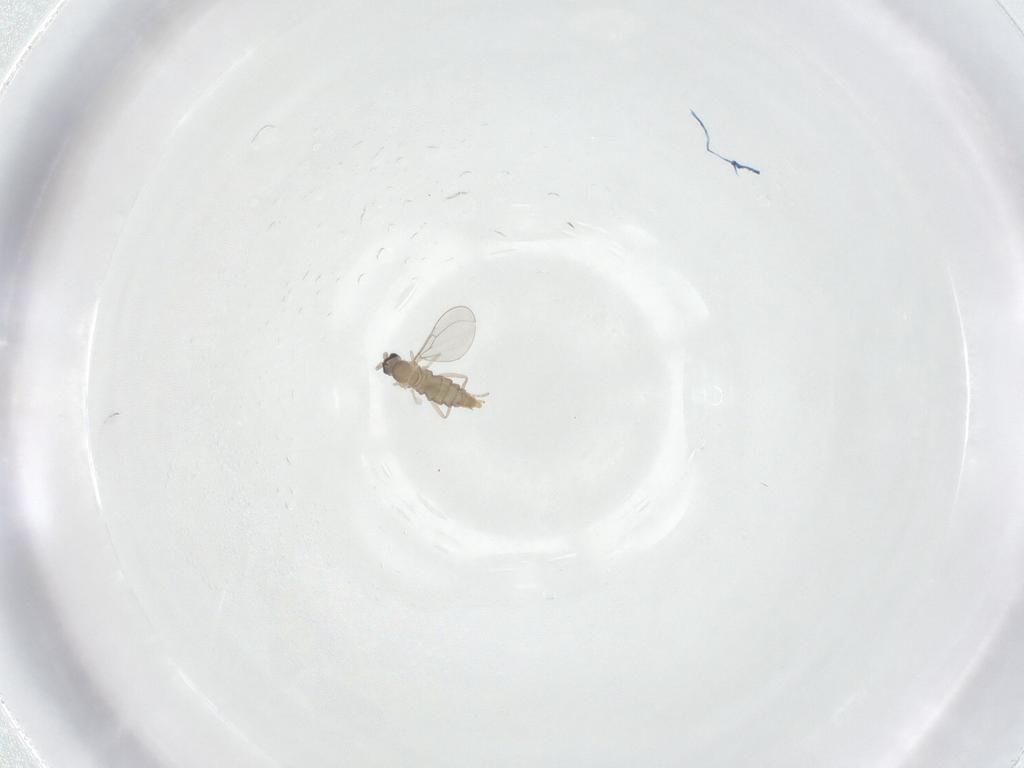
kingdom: Animalia
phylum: Arthropoda
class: Insecta
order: Diptera
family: Cecidomyiidae
